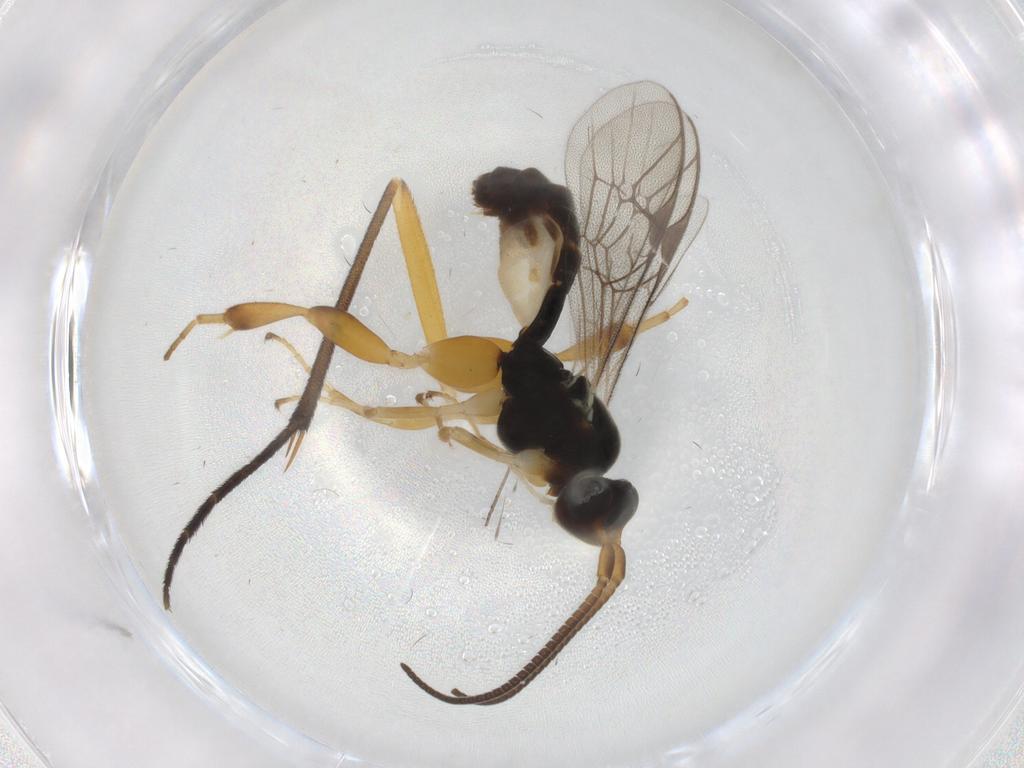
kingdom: Animalia
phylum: Arthropoda
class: Insecta
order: Hymenoptera
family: Ichneumonidae
